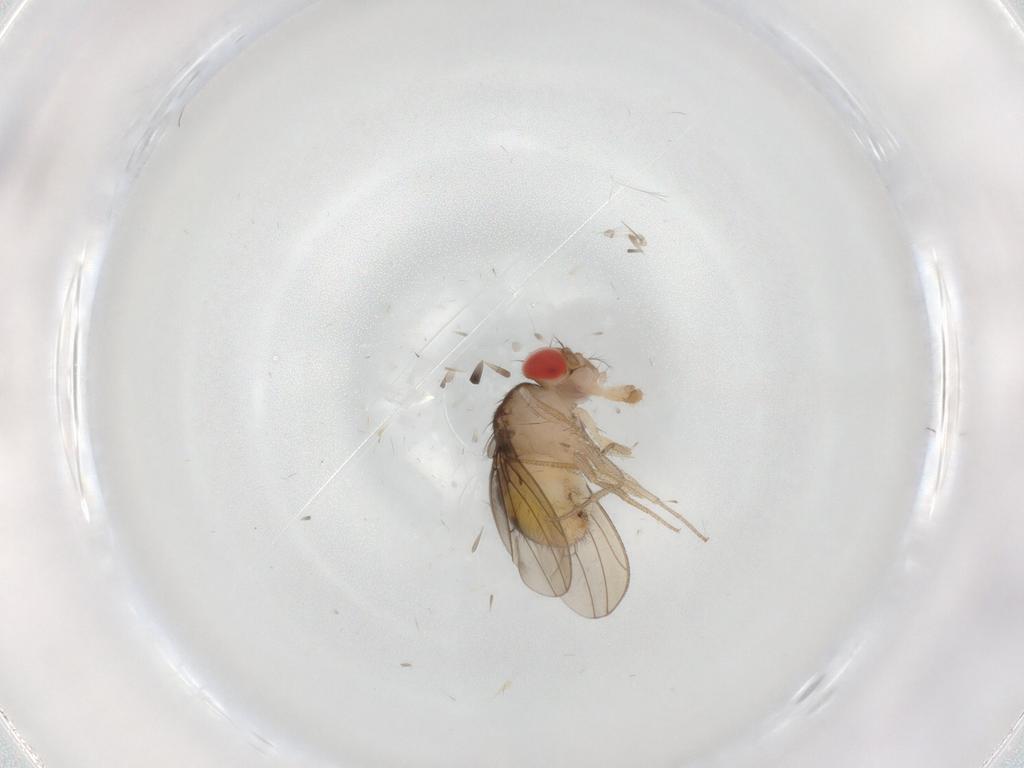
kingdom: Animalia
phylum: Arthropoda
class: Insecta
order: Diptera
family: Drosophilidae
